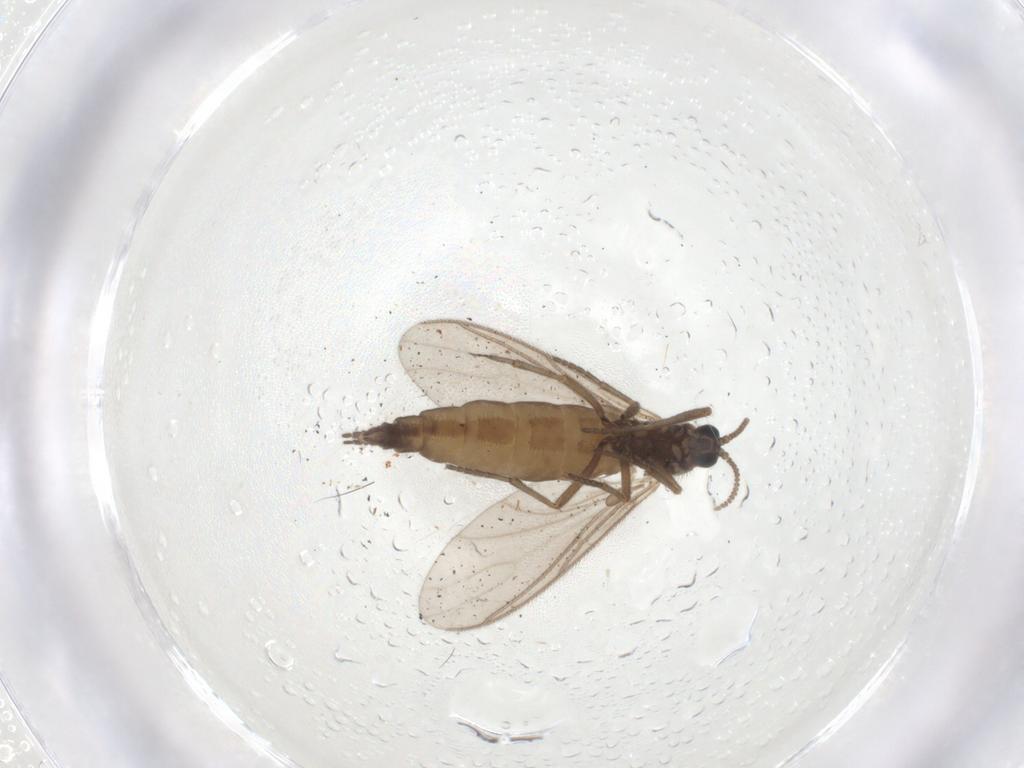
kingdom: Animalia
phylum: Arthropoda
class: Insecta
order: Diptera
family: Sciaridae
